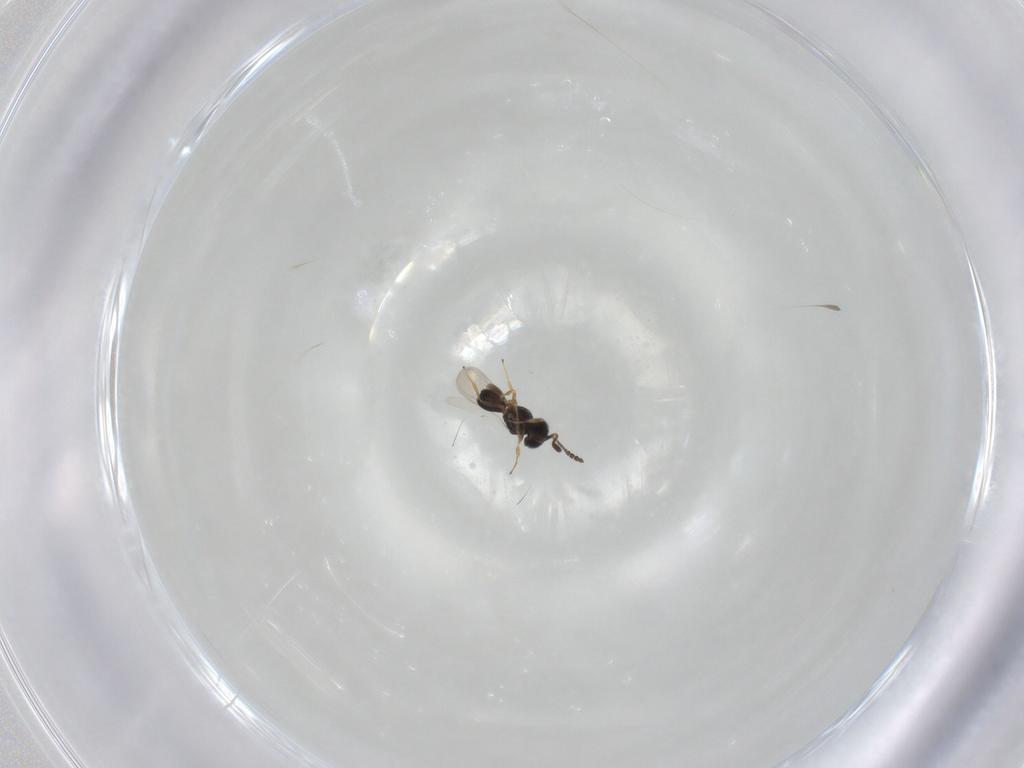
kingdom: Animalia
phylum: Arthropoda
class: Insecta
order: Hymenoptera
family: Scelionidae
